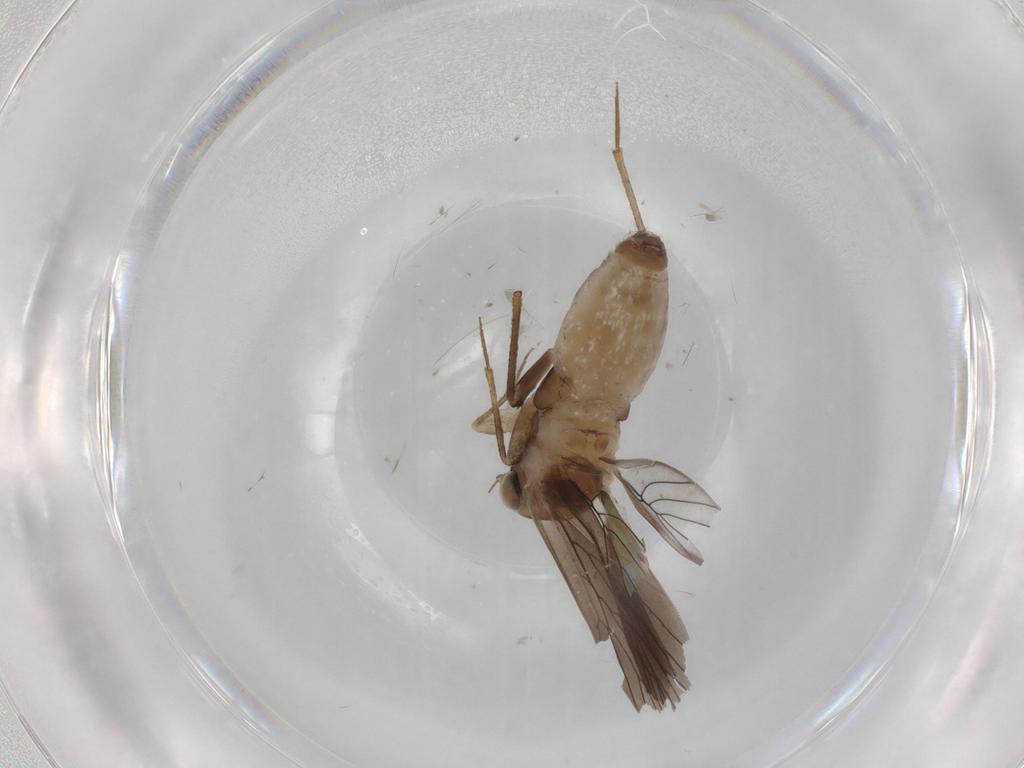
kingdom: Animalia
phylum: Arthropoda
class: Insecta
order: Psocodea
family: Lepidopsocidae
